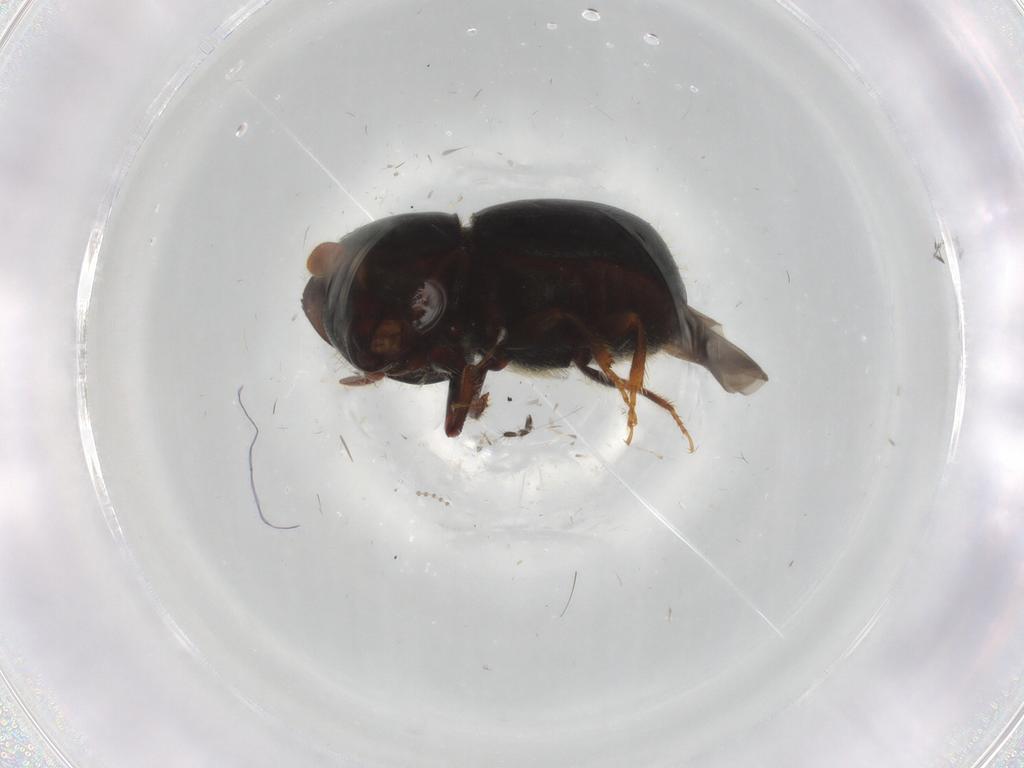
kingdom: Animalia
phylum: Arthropoda
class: Insecta
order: Coleoptera
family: Curculionidae
